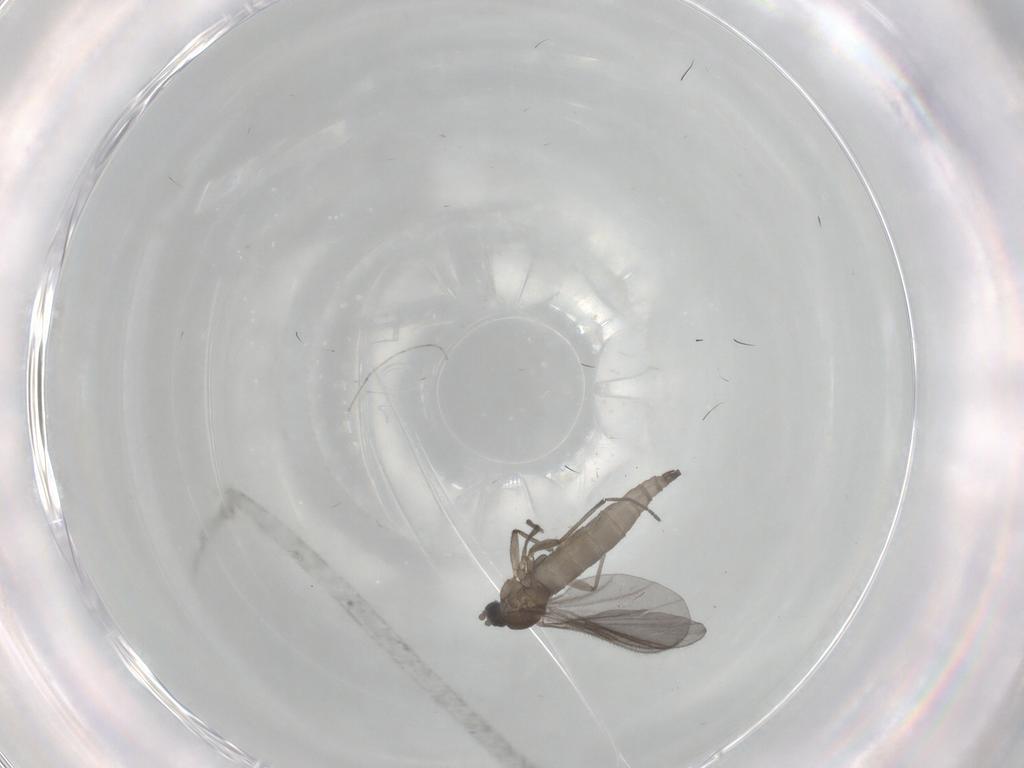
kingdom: Animalia
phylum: Arthropoda
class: Insecta
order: Diptera
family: Sciaridae
